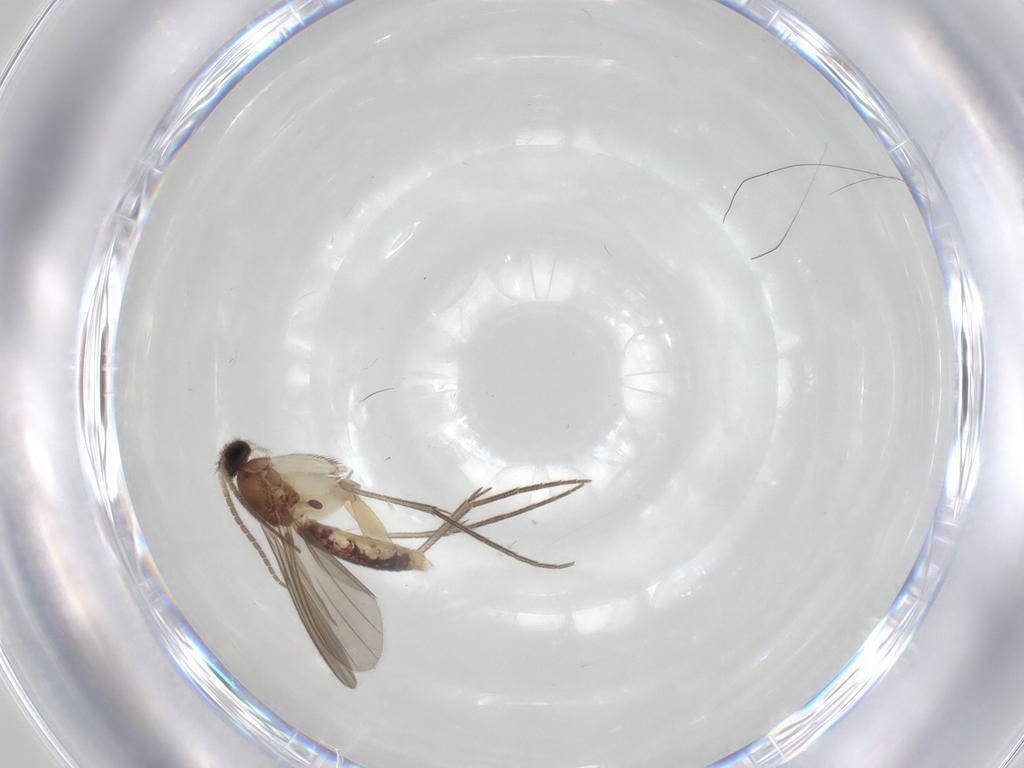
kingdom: Animalia
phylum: Arthropoda
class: Insecta
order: Diptera
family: Mycetophilidae
